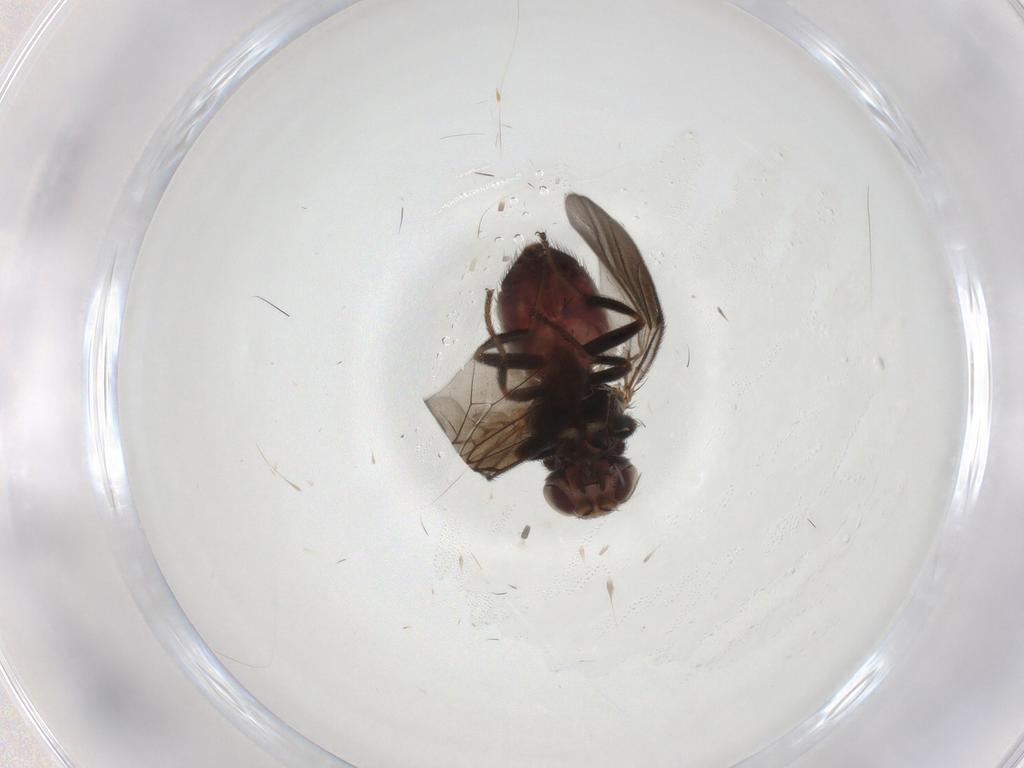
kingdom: Animalia
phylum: Arthropoda
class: Insecta
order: Diptera
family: Chloropidae
